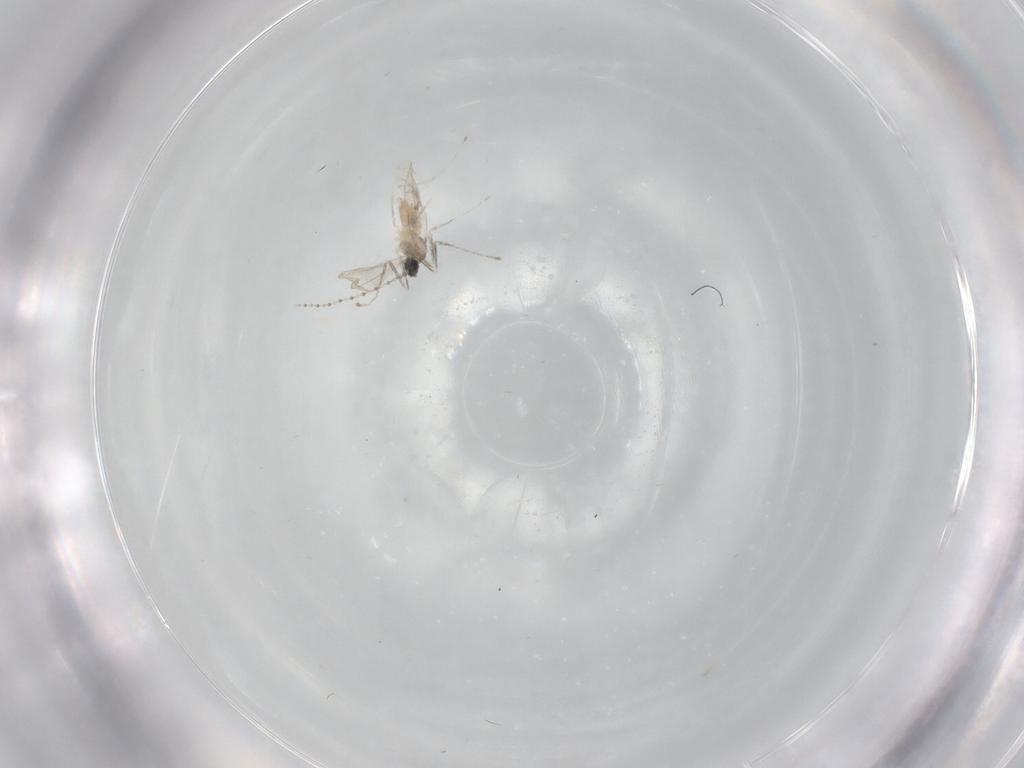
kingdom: Animalia
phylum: Arthropoda
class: Insecta
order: Diptera
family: Cecidomyiidae
